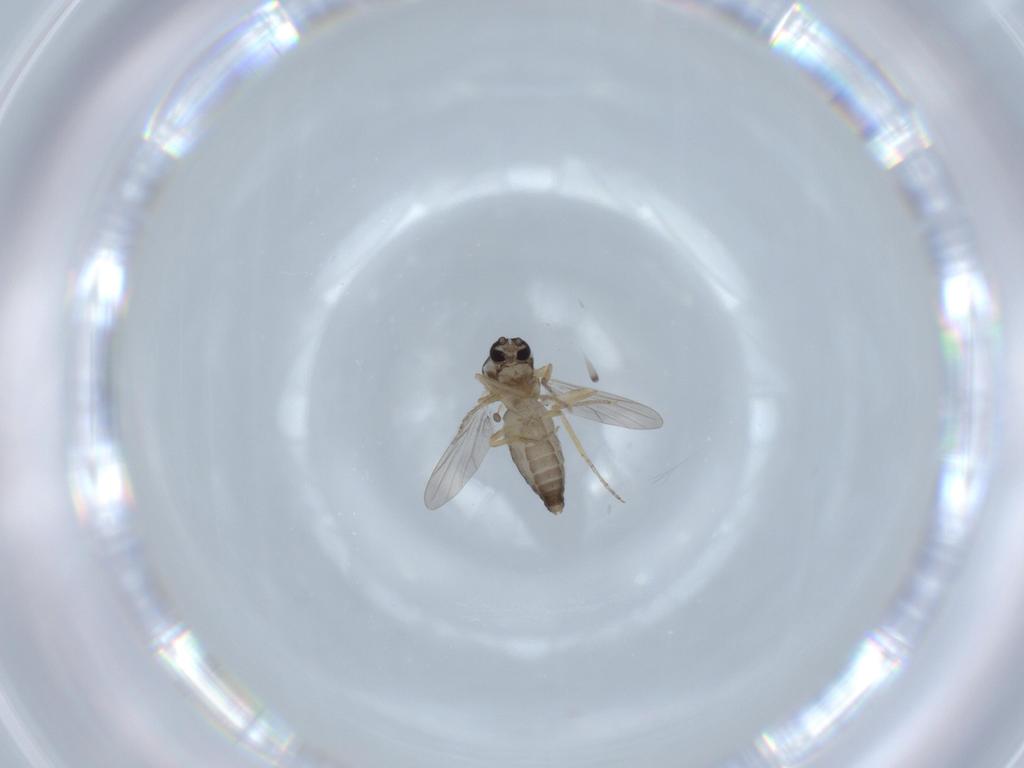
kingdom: Animalia
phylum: Arthropoda
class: Insecta
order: Diptera
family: Ceratopogonidae
